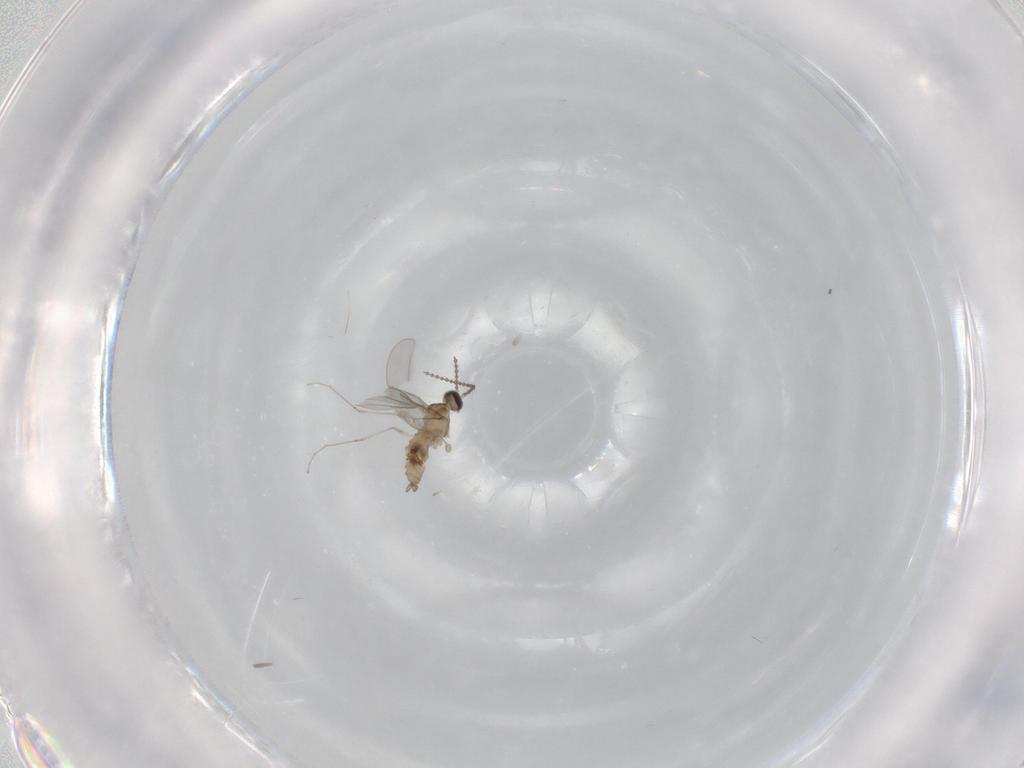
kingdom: Animalia
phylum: Arthropoda
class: Insecta
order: Diptera
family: Cecidomyiidae
